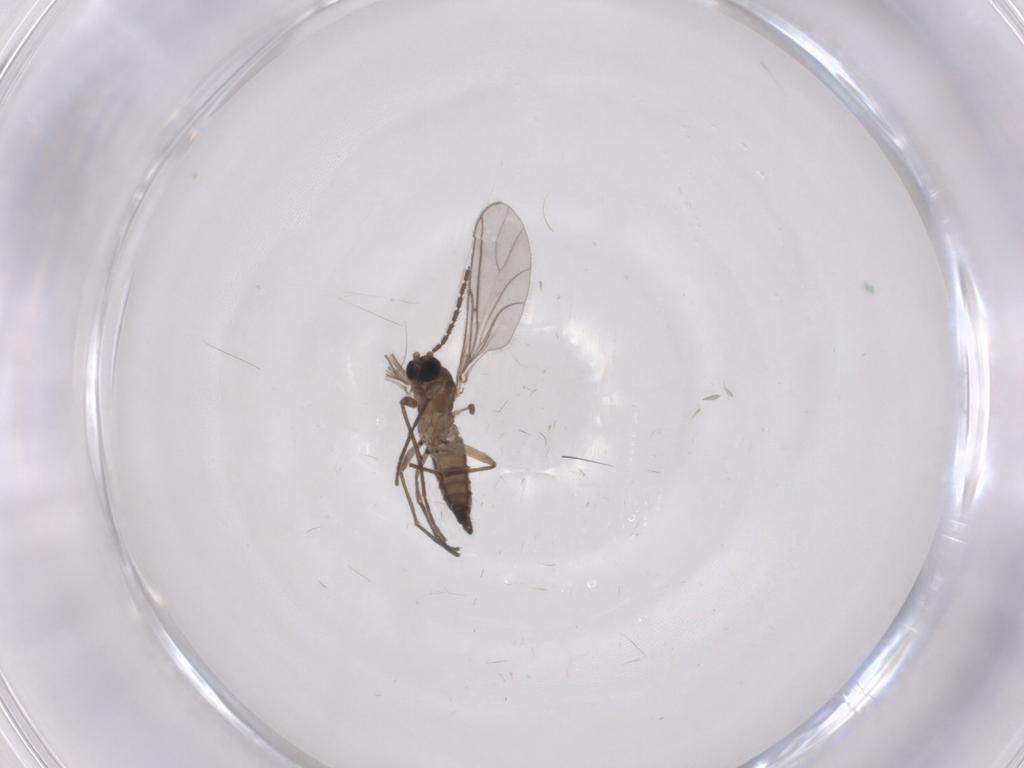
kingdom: Animalia
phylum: Arthropoda
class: Insecta
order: Diptera
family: Sciaridae
